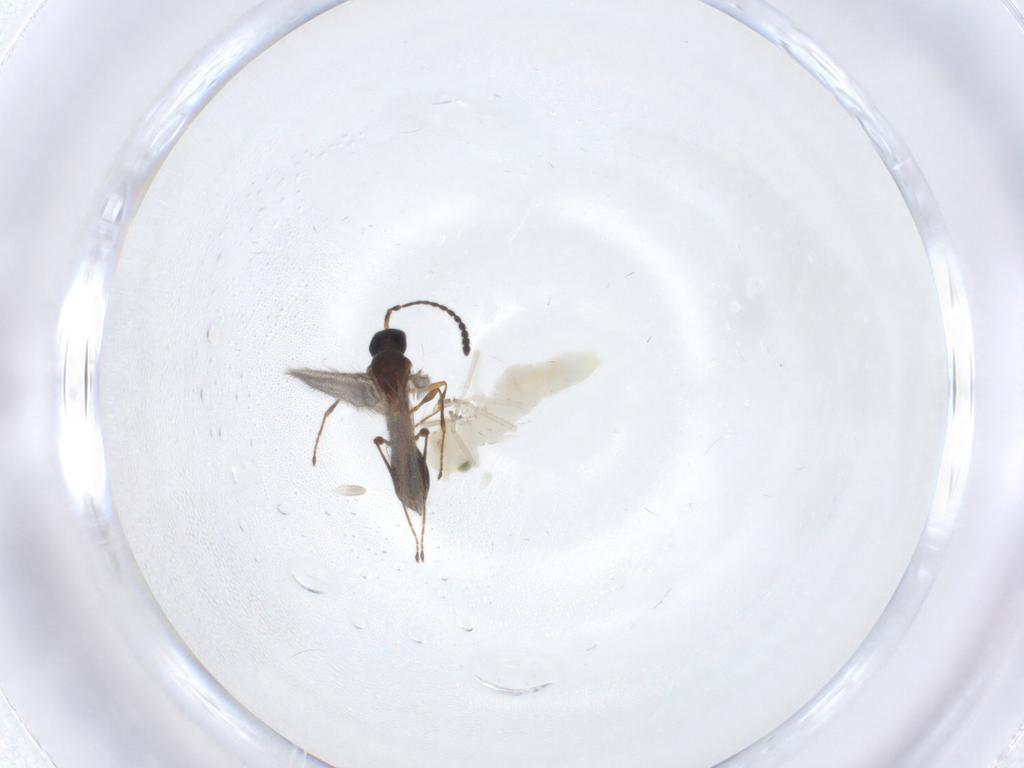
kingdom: Animalia
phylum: Arthropoda
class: Insecta
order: Psocodea
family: Caeciliusidae
